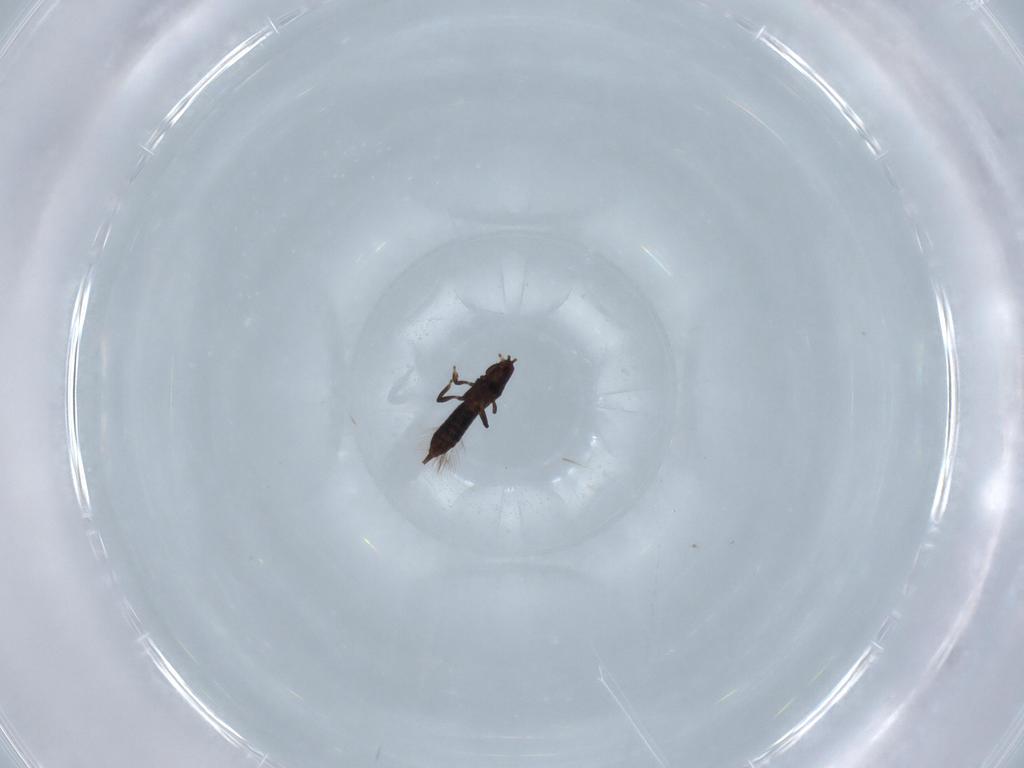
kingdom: Animalia
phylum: Arthropoda
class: Insecta
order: Thysanoptera
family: Phlaeothripidae
